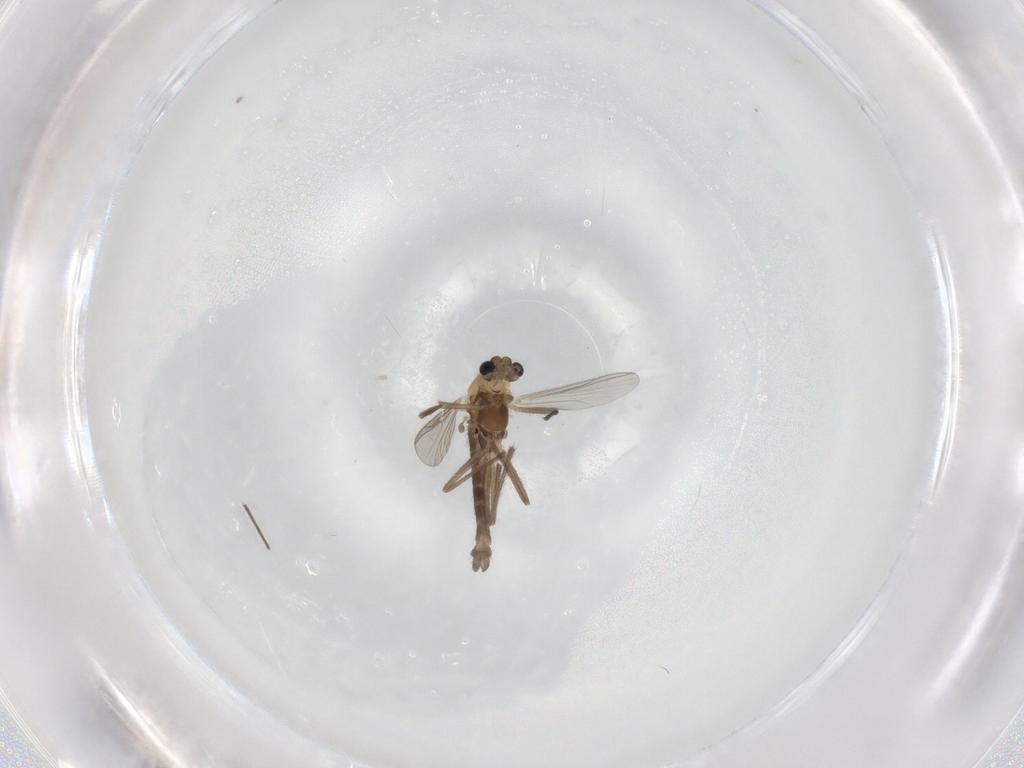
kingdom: Animalia
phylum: Arthropoda
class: Insecta
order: Diptera
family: Chironomidae
